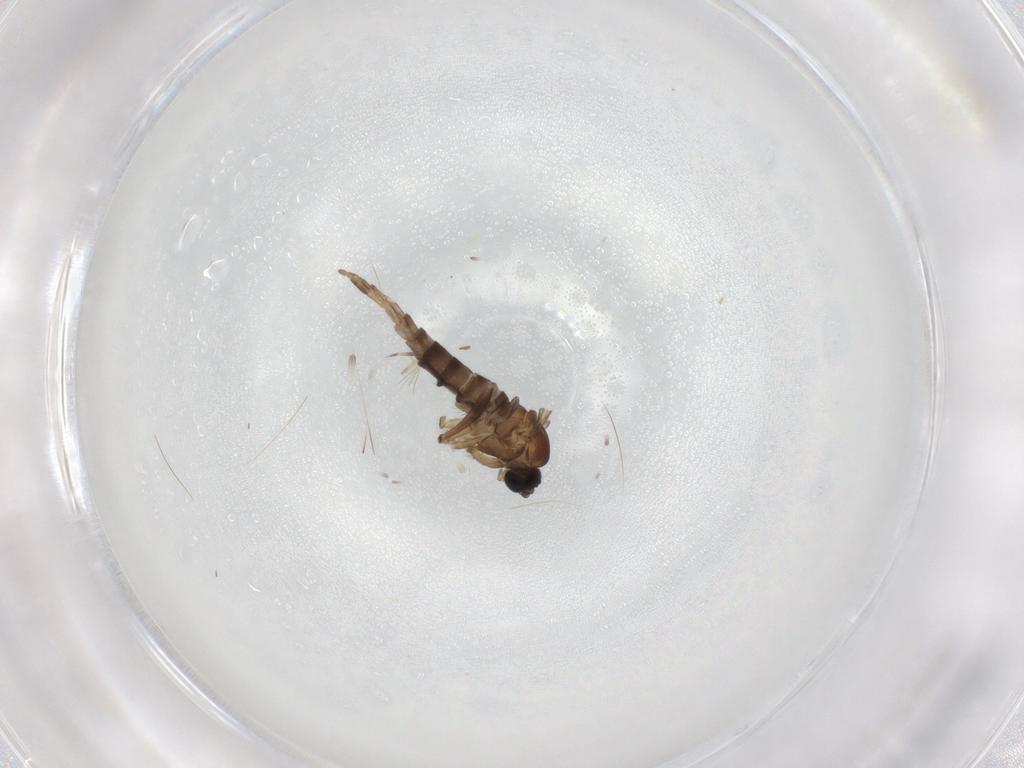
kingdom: Animalia
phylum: Arthropoda
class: Insecta
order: Diptera
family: Sciaridae
